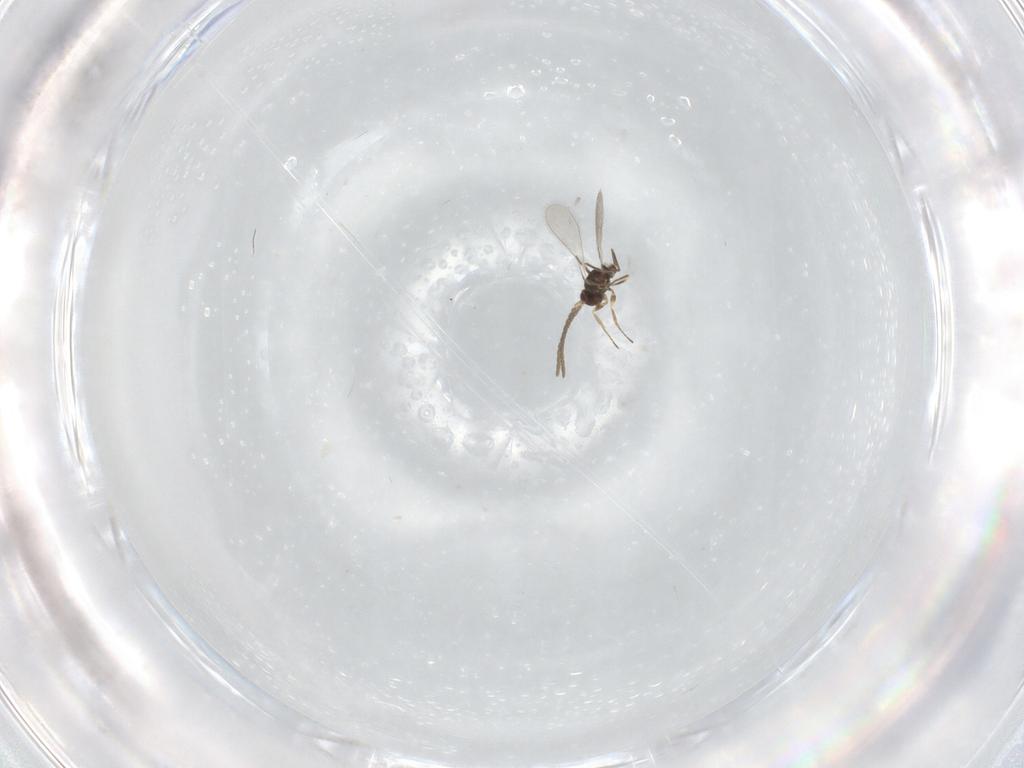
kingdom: Animalia
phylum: Arthropoda
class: Insecta
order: Hymenoptera
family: Mymaridae
